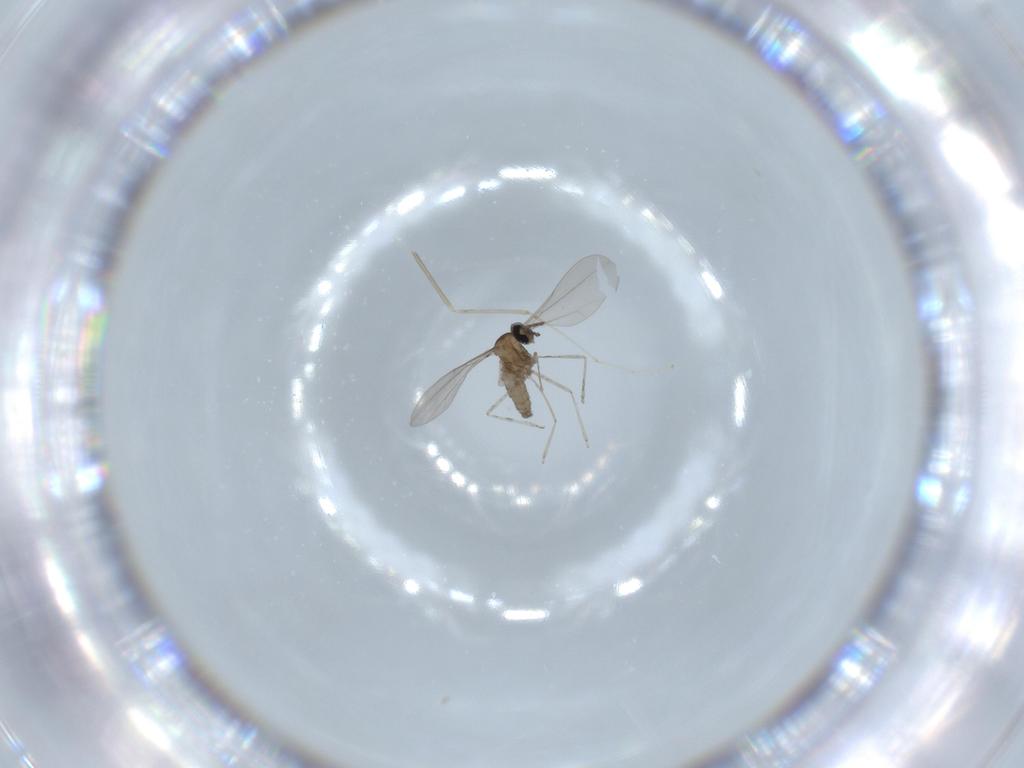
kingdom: Animalia
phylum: Arthropoda
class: Insecta
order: Diptera
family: Cecidomyiidae
